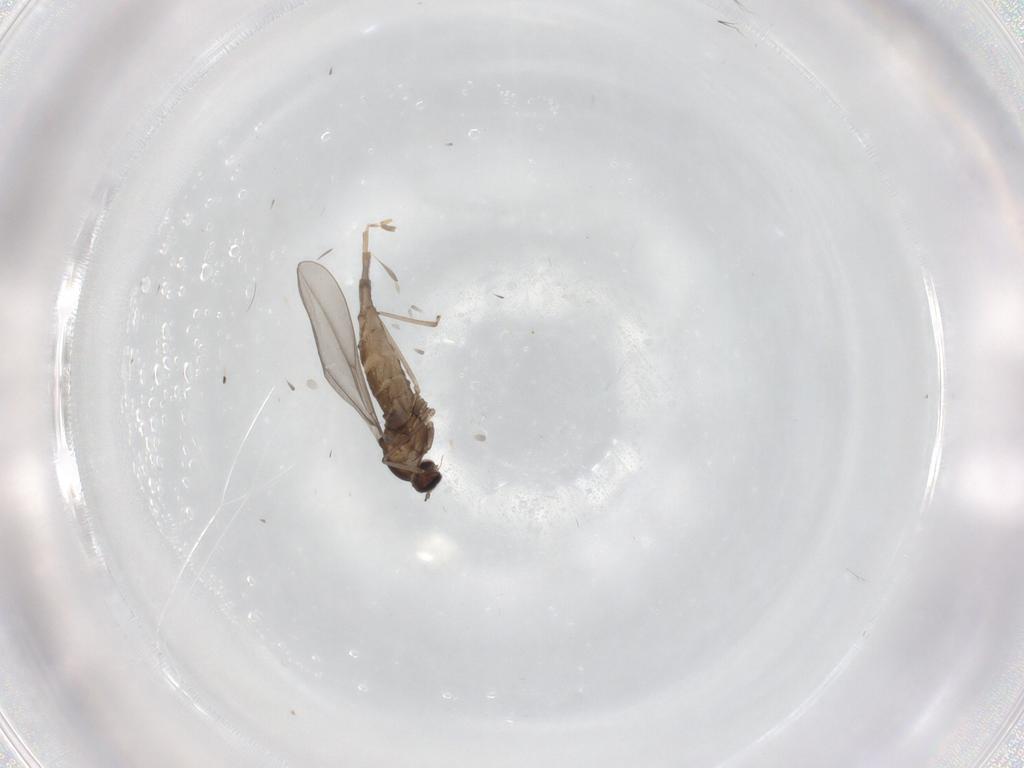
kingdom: Animalia
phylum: Arthropoda
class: Insecta
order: Diptera
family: Cecidomyiidae
